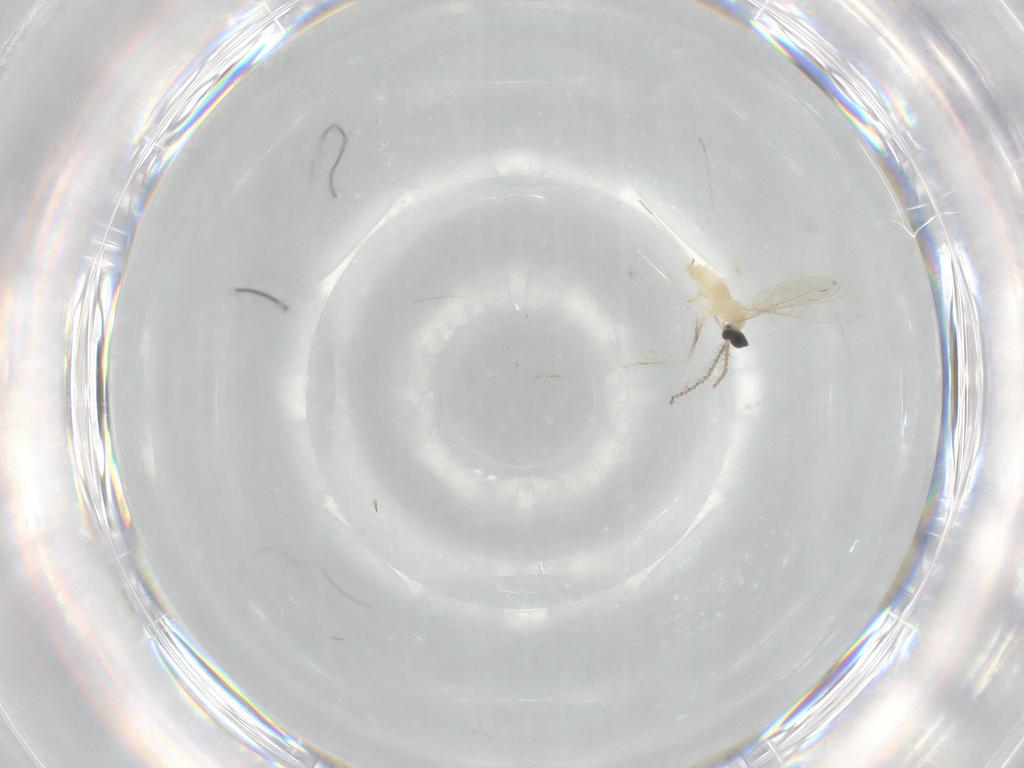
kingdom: Animalia
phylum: Arthropoda
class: Insecta
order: Diptera
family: Cecidomyiidae
